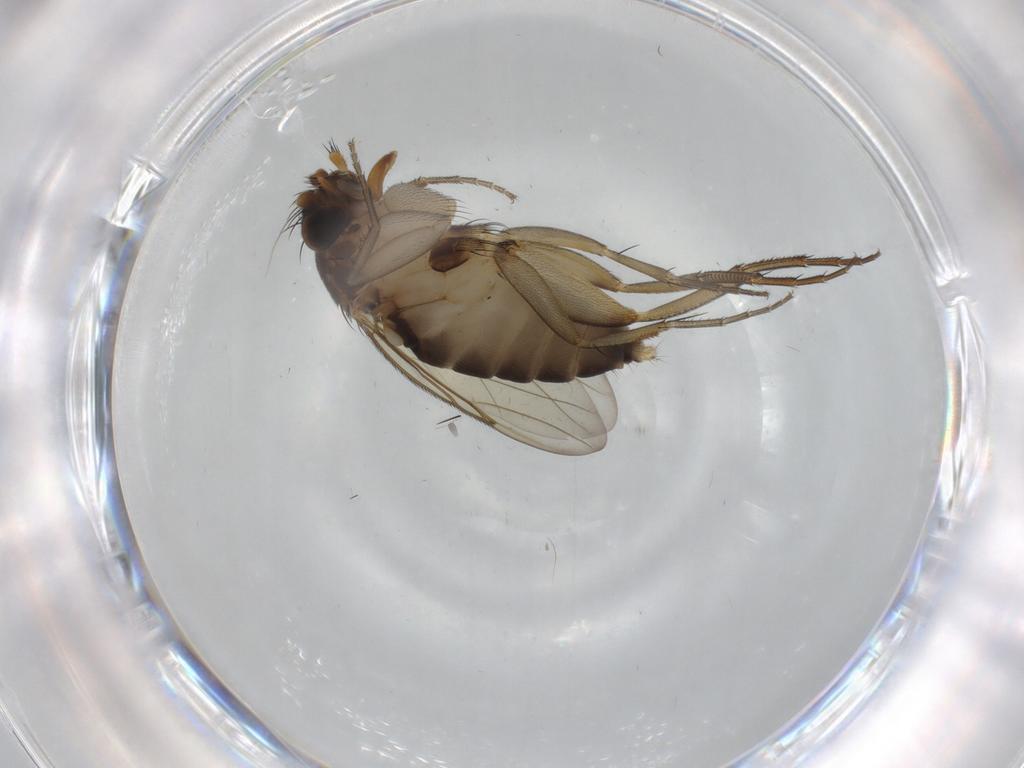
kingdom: Animalia
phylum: Arthropoda
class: Insecta
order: Diptera
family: Phoridae
